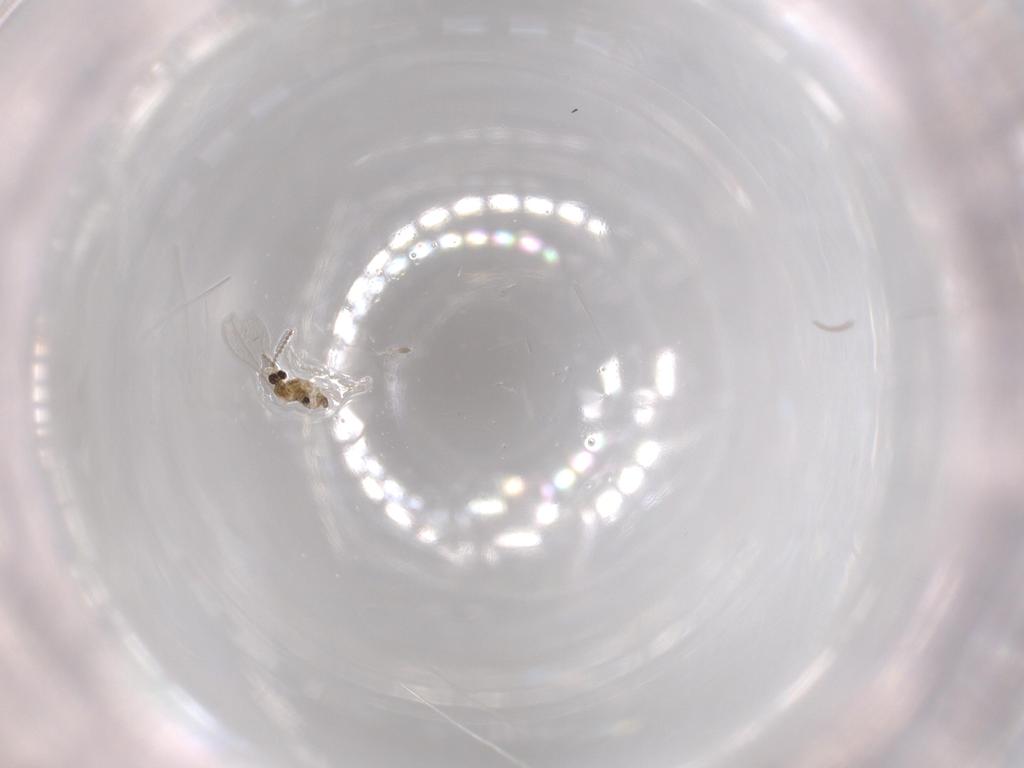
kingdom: Animalia
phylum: Arthropoda
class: Insecta
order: Diptera
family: Cecidomyiidae
